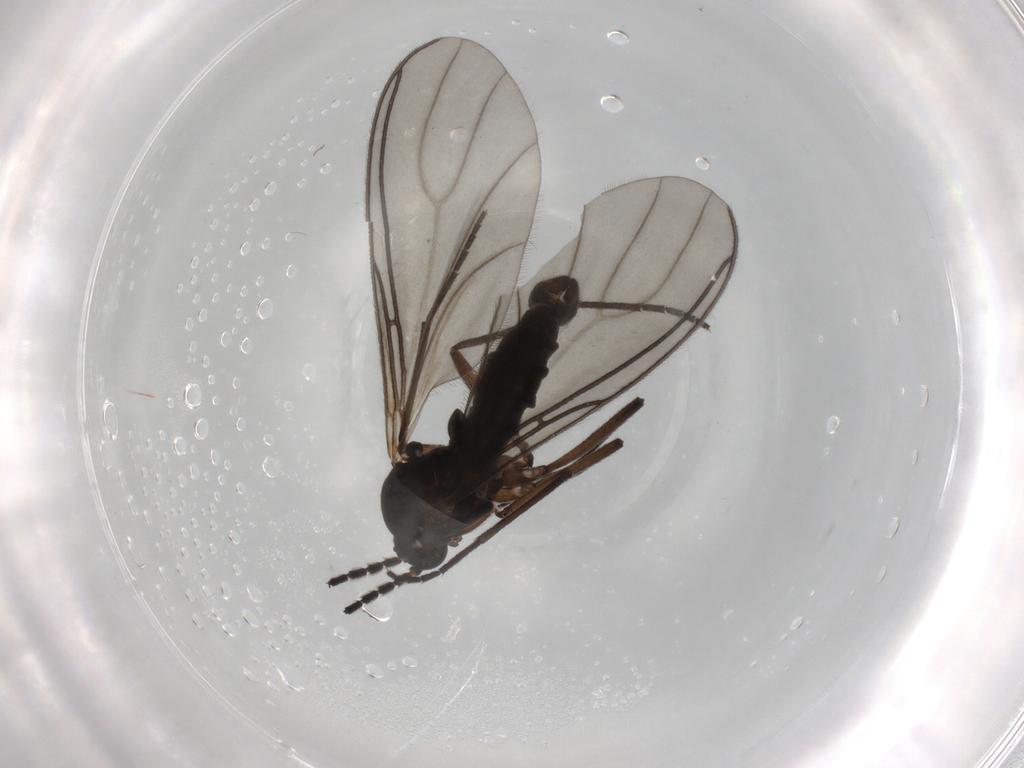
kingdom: Animalia
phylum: Arthropoda
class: Insecta
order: Diptera
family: Sciaridae
